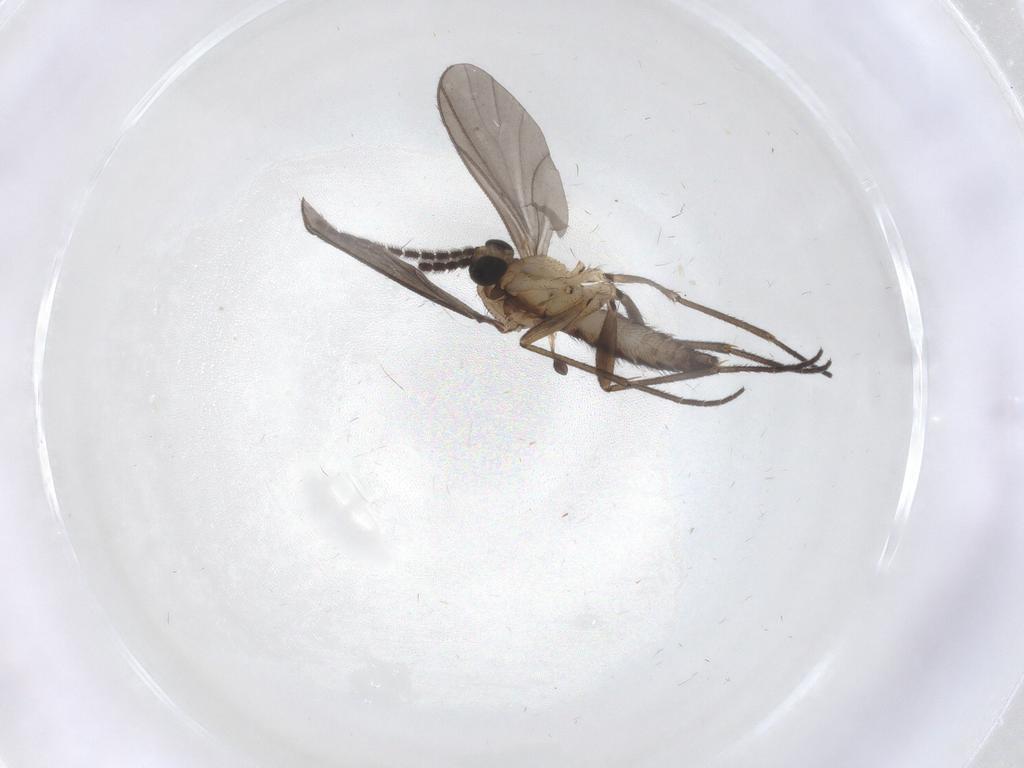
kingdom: Animalia
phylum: Arthropoda
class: Insecta
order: Diptera
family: Sciaridae
